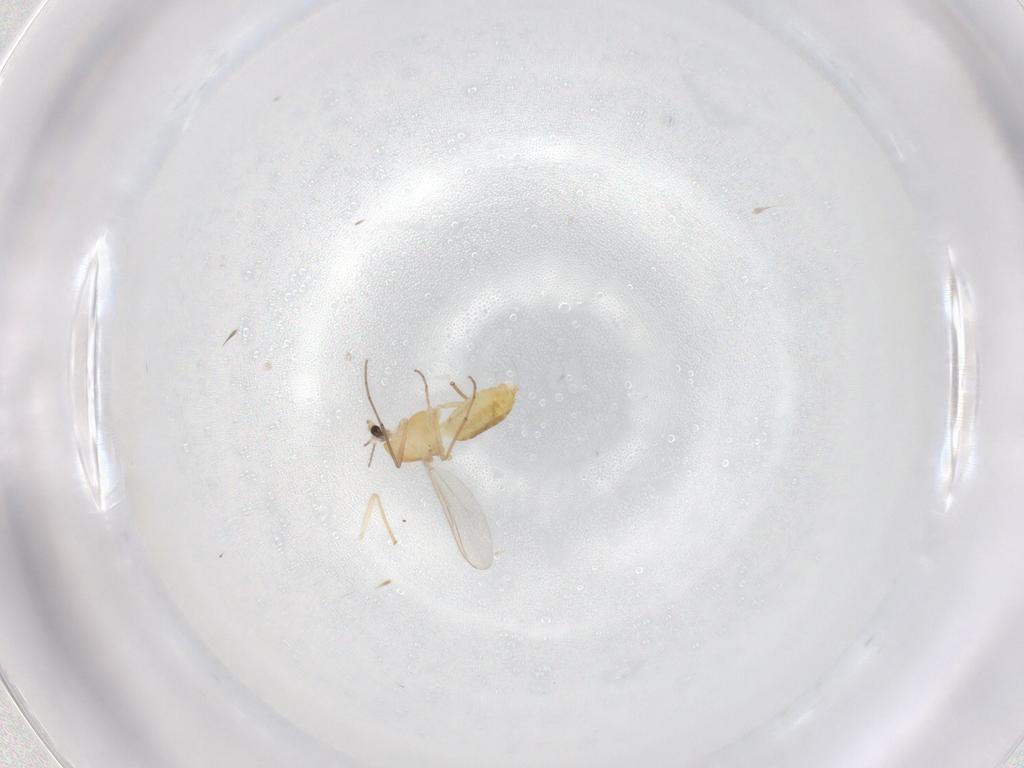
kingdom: Animalia
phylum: Arthropoda
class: Insecta
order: Diptera
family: Chironomidae
